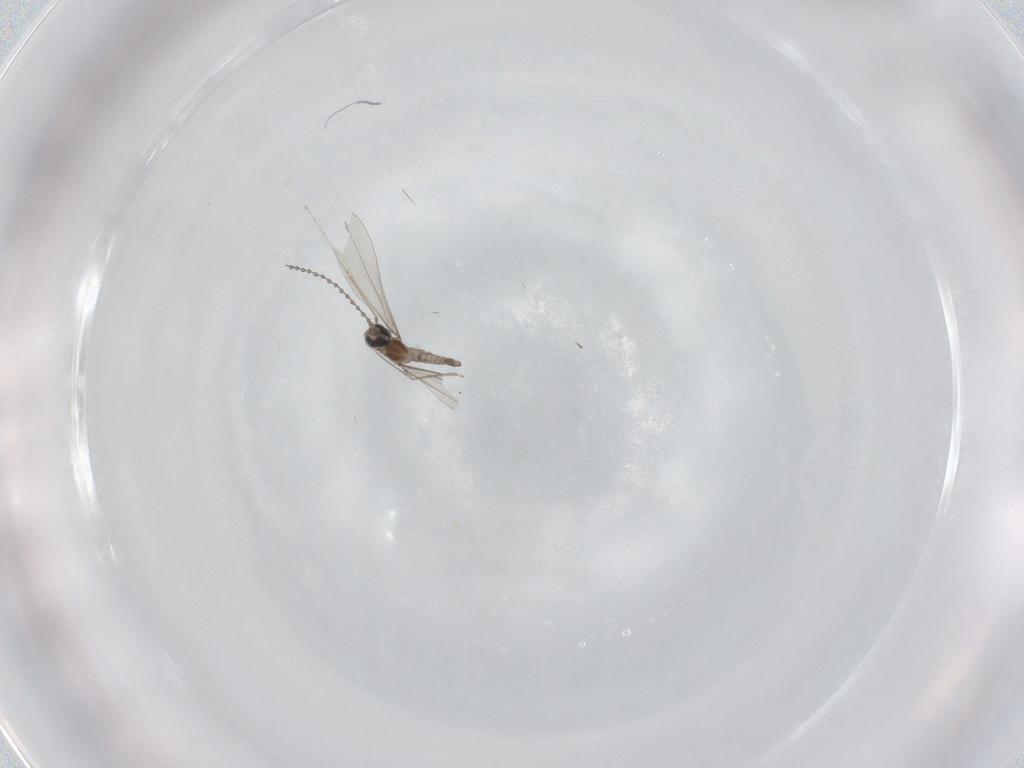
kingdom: Animalia
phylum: Arthropoda
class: Insecta
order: Diptera
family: Cecidomyiidae
